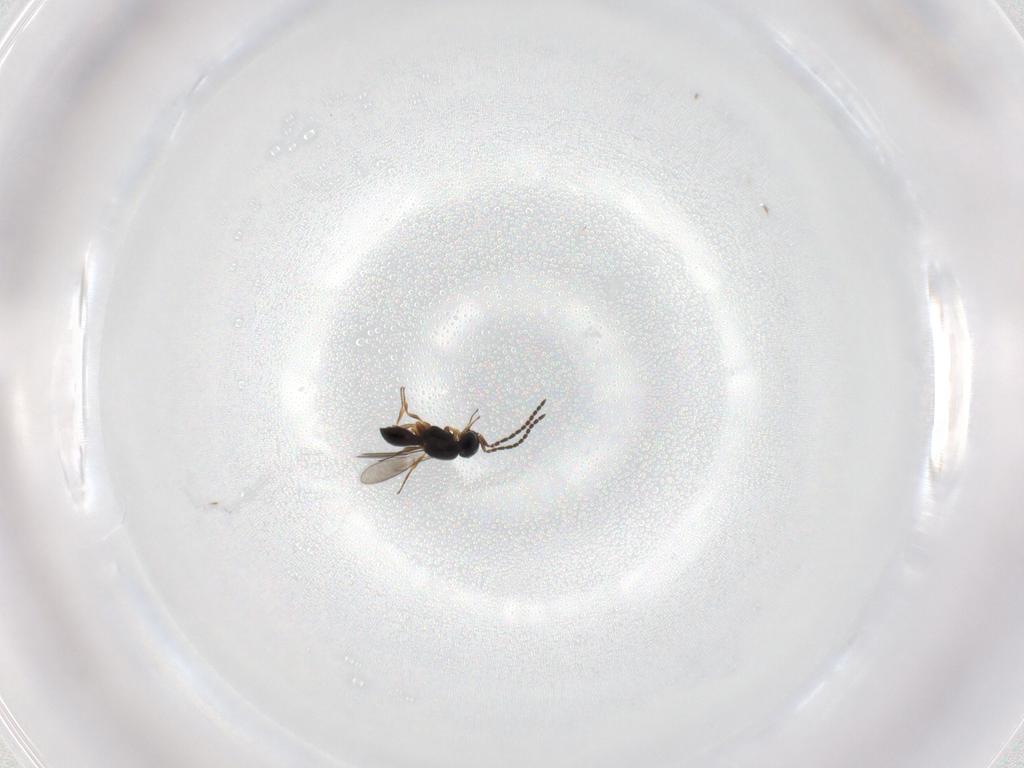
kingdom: Animalia
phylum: Arthropoda
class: Insecta
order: Hymenoptera
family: Scelionidae
